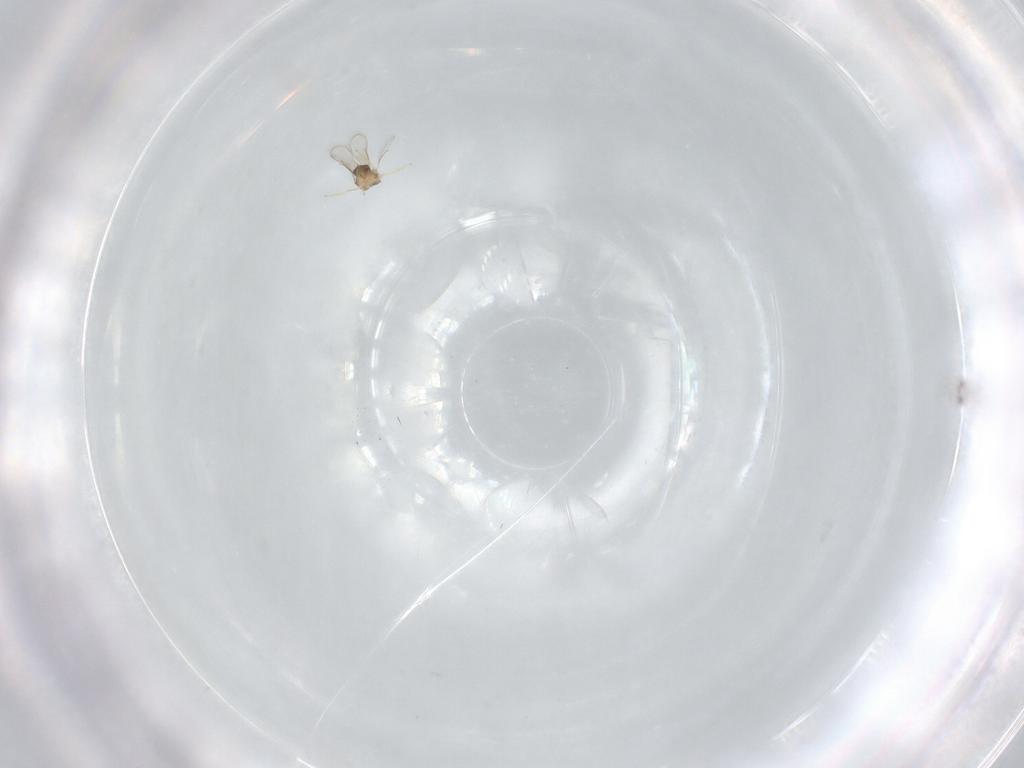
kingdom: Animalia
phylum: Arthropoda
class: Insecta
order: Hymenoptera
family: Aphelinidae
